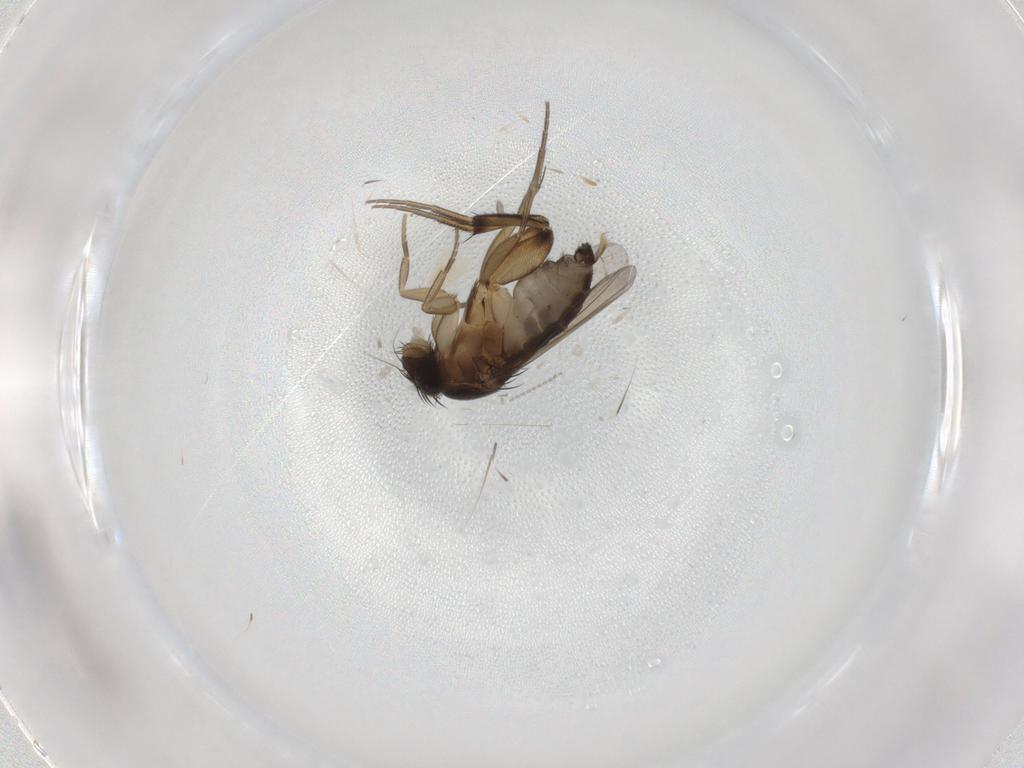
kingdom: Animalia
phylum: Arthropoda
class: Insecta
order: Diptera
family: Phoridae
